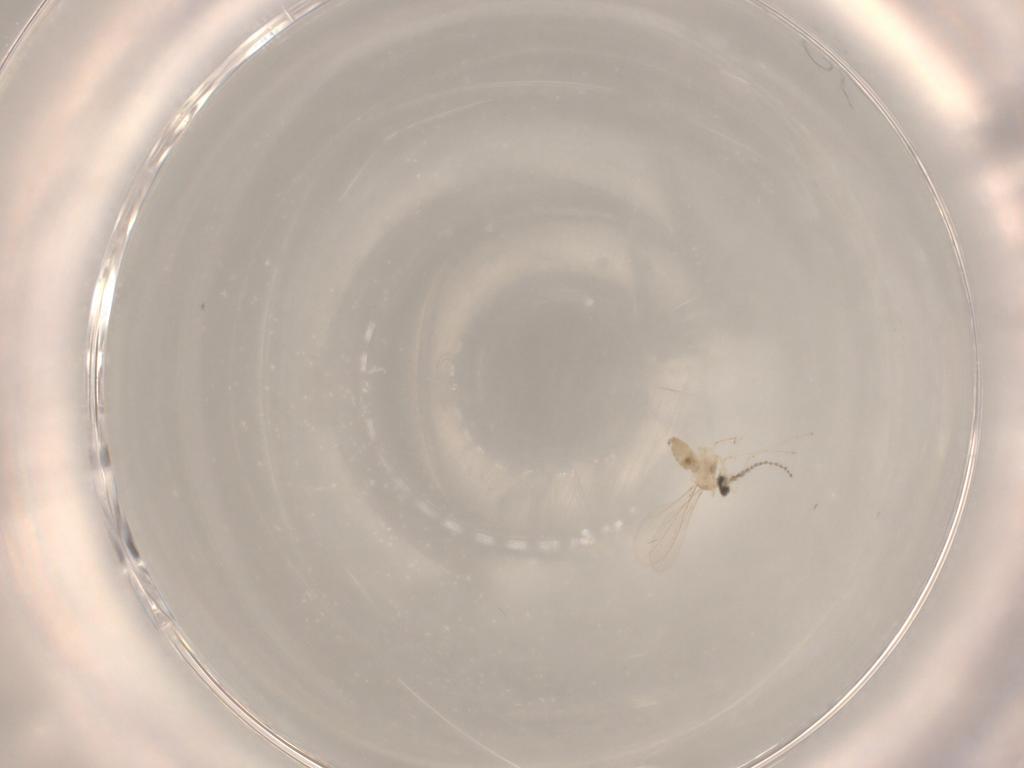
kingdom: Animalia
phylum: Arthropoda
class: Insecta
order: Diptera
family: Cecidomyiidae
